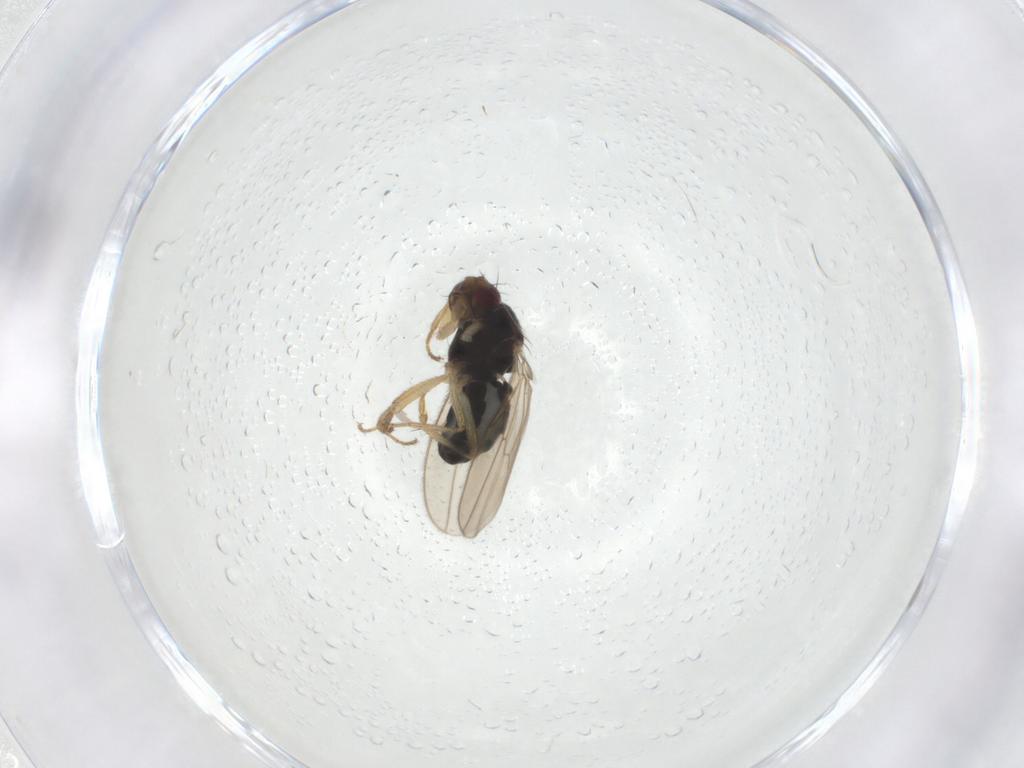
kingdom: Animalia
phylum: Arthropoda
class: Insecta
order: Diptera
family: Sphaeroceridae
